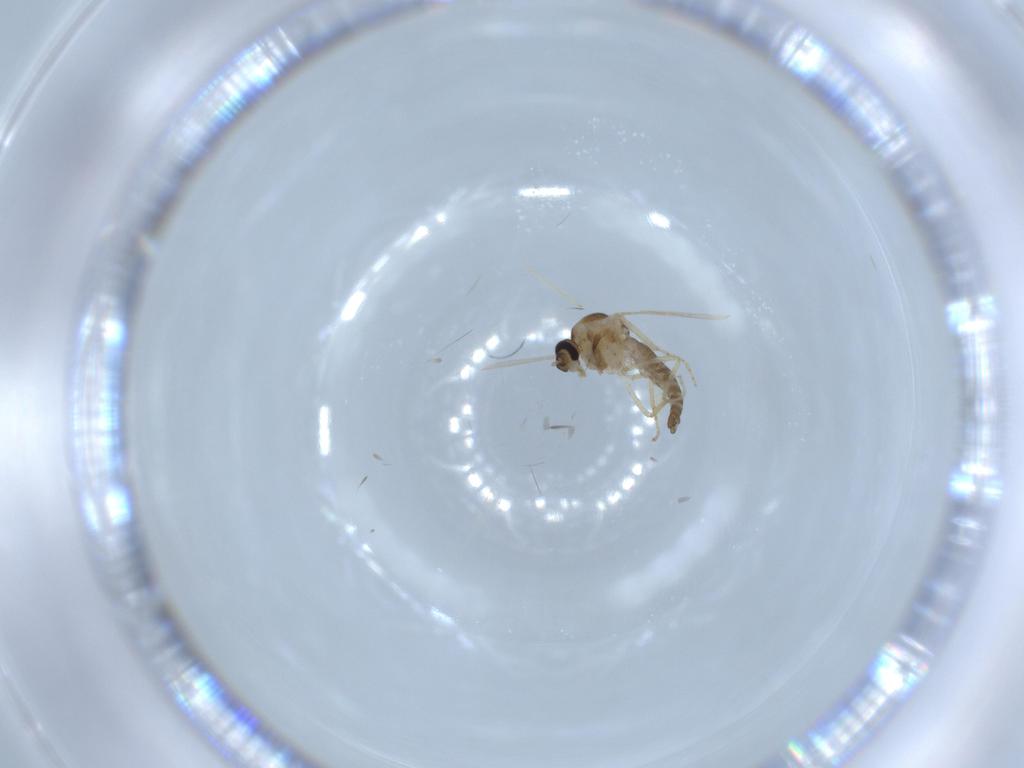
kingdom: Animalia
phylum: Arthropoda
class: Insecta
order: Diptera
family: Ceratopogonidae
